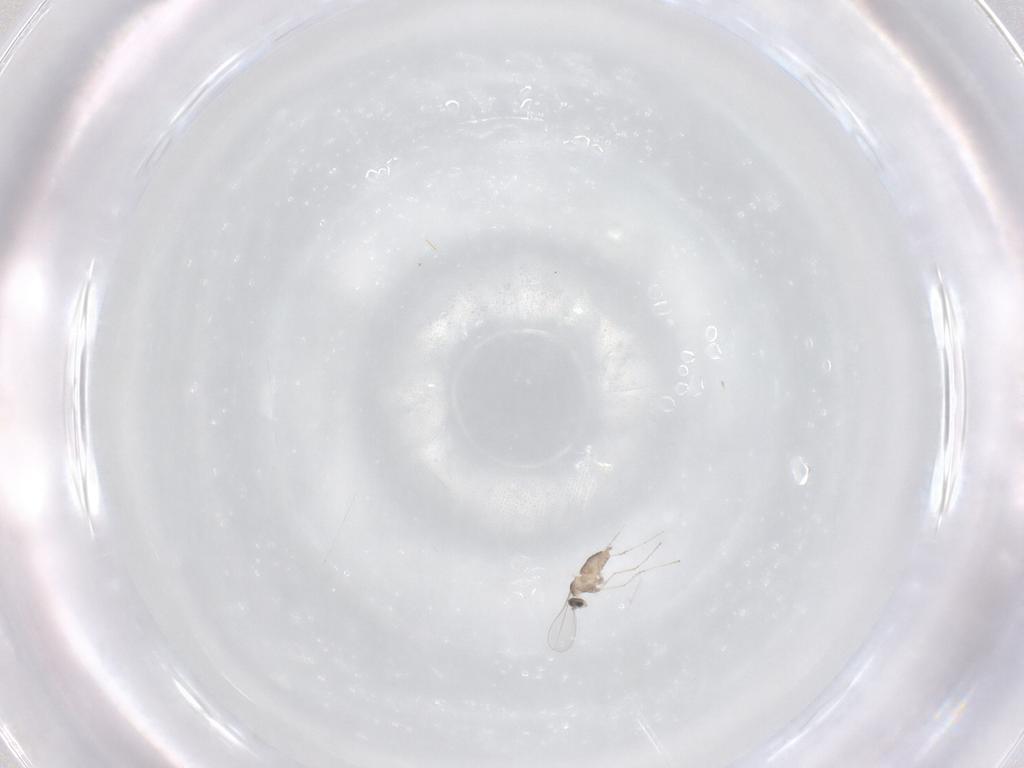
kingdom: Animalia
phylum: Arthropoda
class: Insecta
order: Diptera
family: Cecidomyiidae
